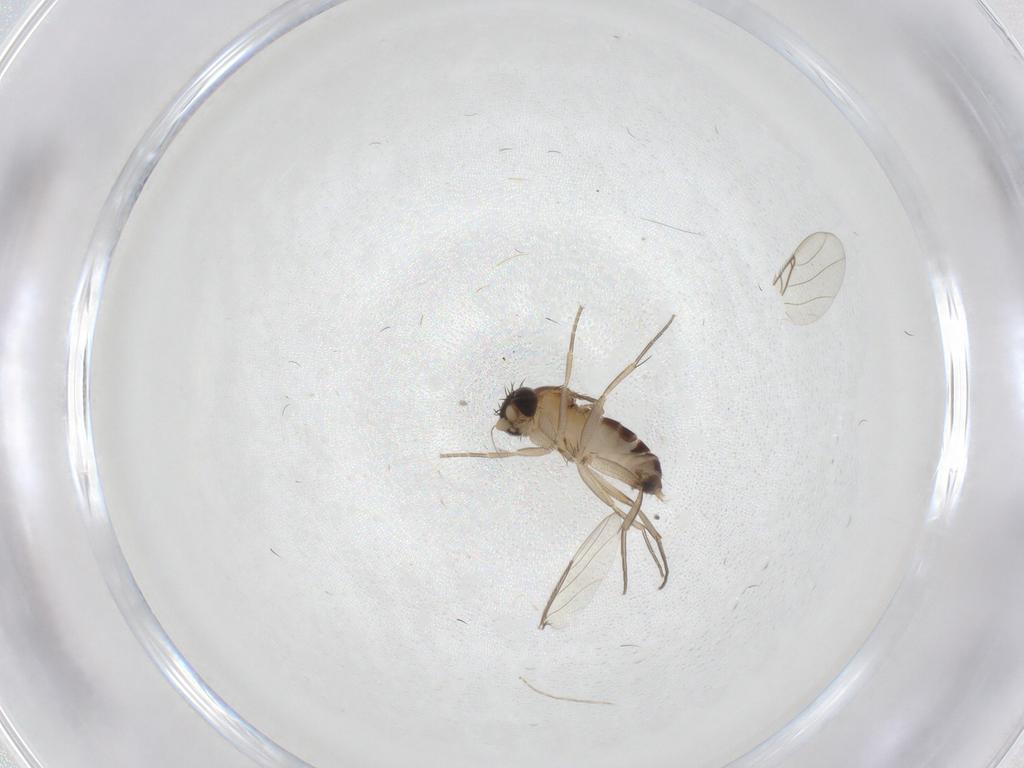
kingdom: Animalia
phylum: Arthropoda
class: Insecta
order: Diptera
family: Phoridae
